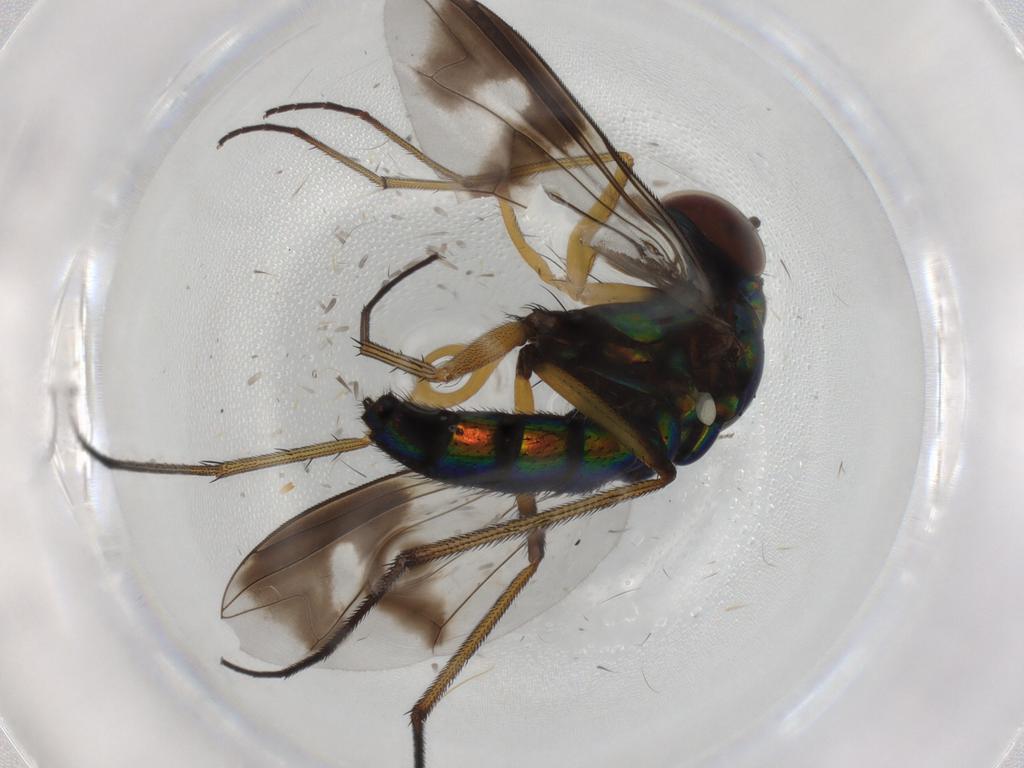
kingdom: Animalia
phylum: Arthropoda
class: Insecta
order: Diptera
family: Dolichopodidae
